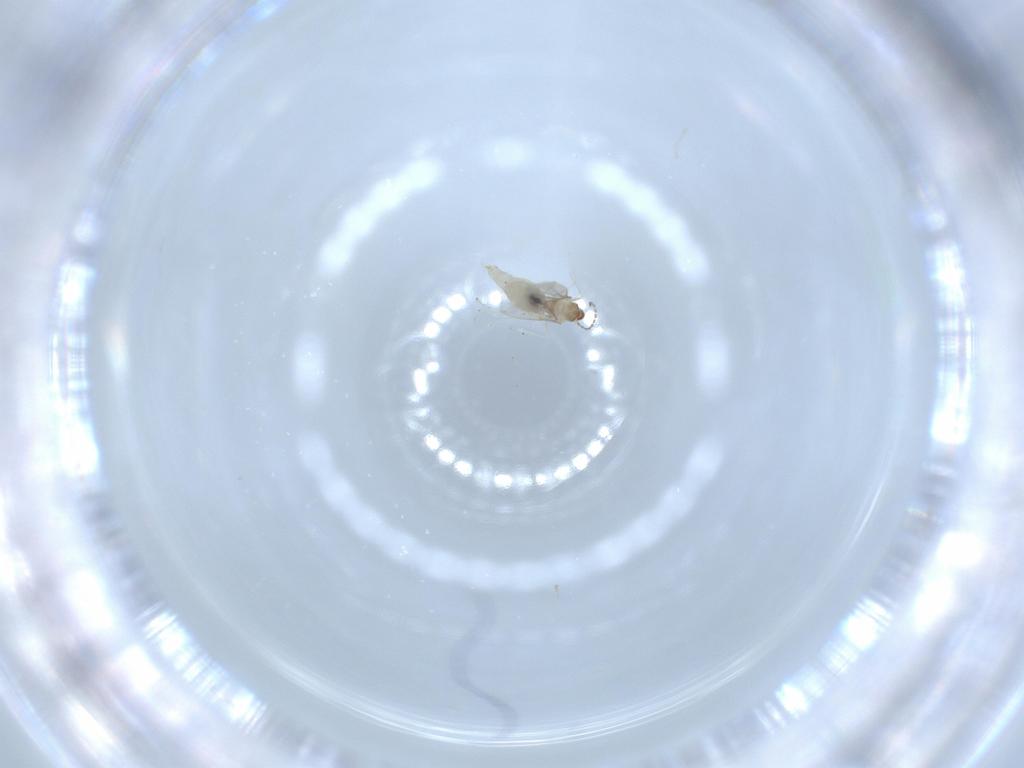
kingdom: Animalia
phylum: Arthropoda
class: Insecta
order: Diptera
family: Cecidomyiidae
